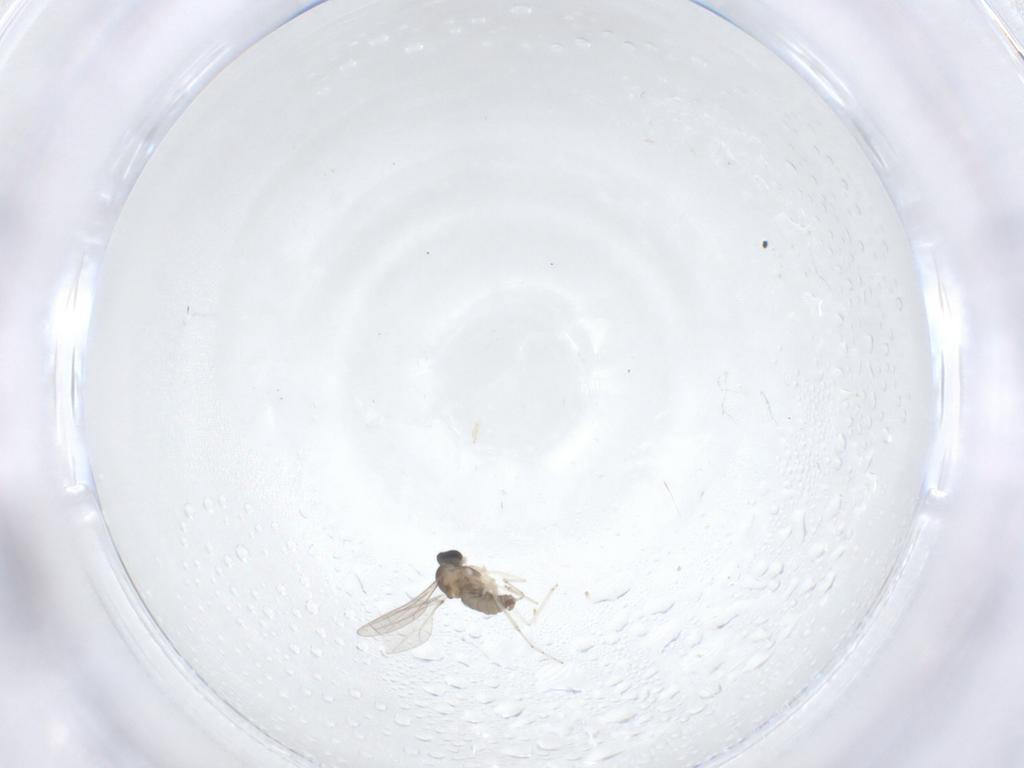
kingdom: Animalia
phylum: Arthropoda
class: Insecta
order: Diptera
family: Cecidomyiidae
